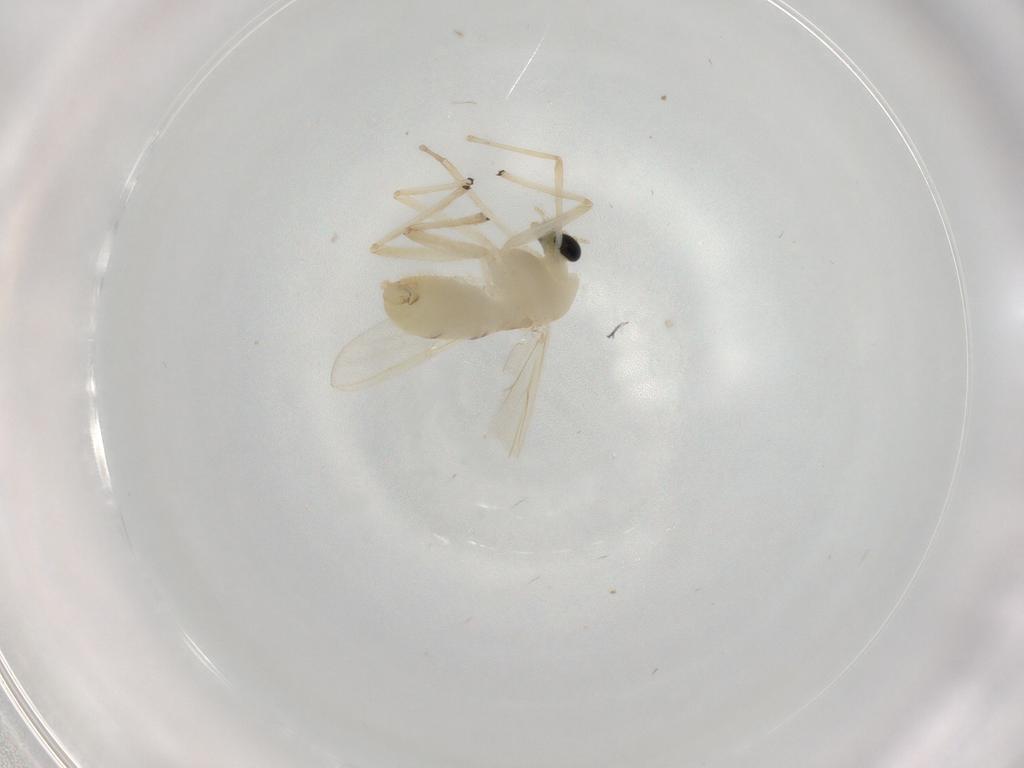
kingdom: Animalia
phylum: Arthropoda
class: Insecta
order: Diptera
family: Chironomidae
